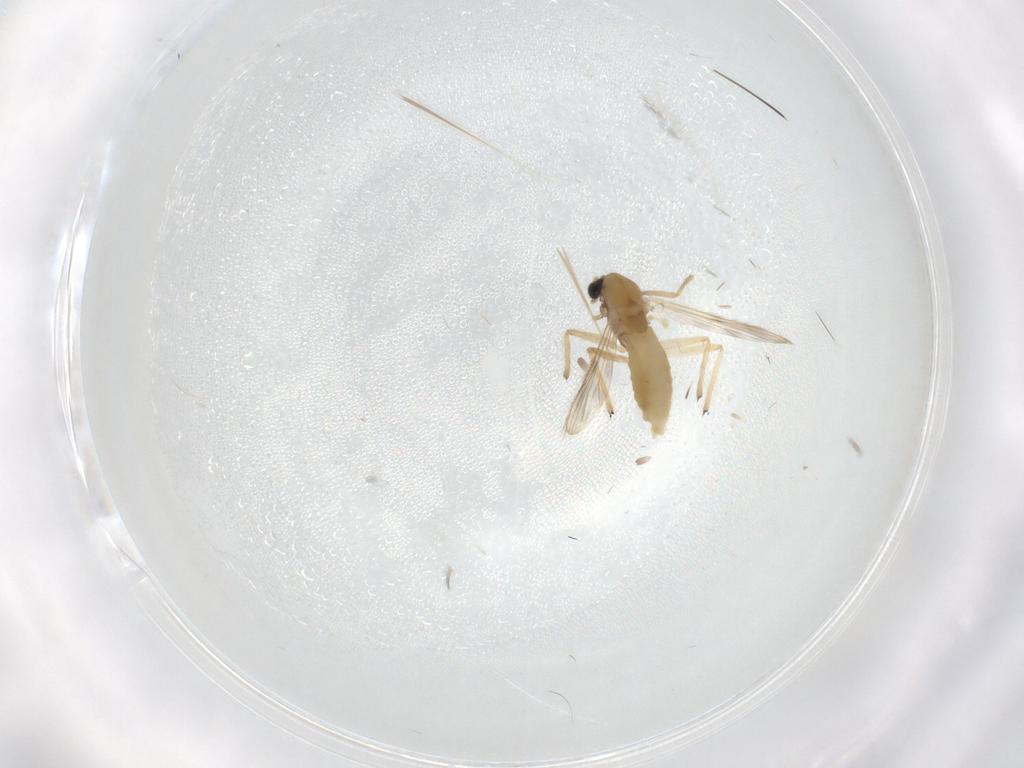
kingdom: Animalia
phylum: Arthropoda
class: Insecta
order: Diptera
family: Chironomidae
